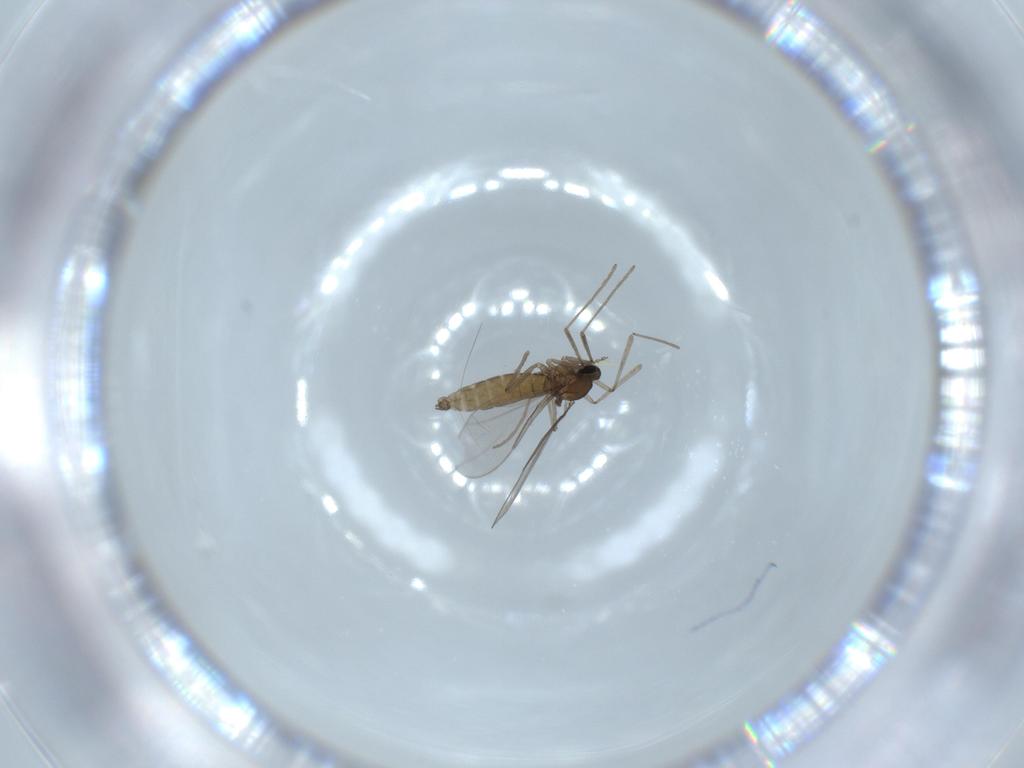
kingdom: Animalia
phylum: Arthropoda
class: Insecta
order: Diptera
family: Cecidomyiidae
